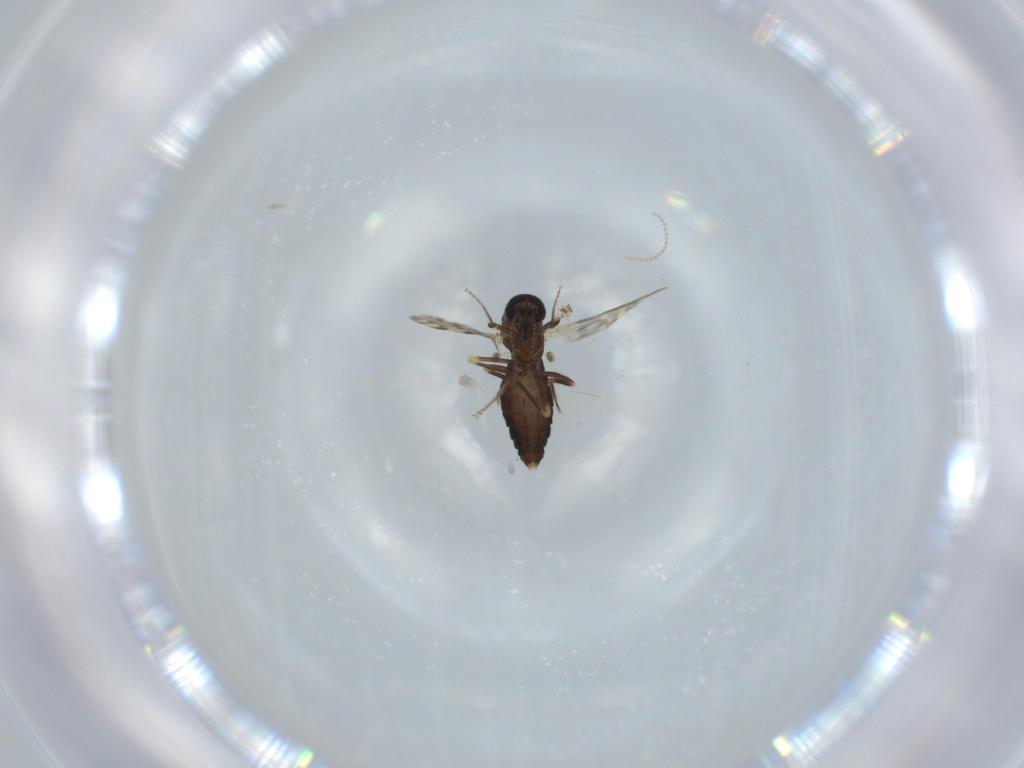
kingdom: Animalia
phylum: Arthropoda
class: Insecta
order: Diptera
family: Ceratopogonidae
